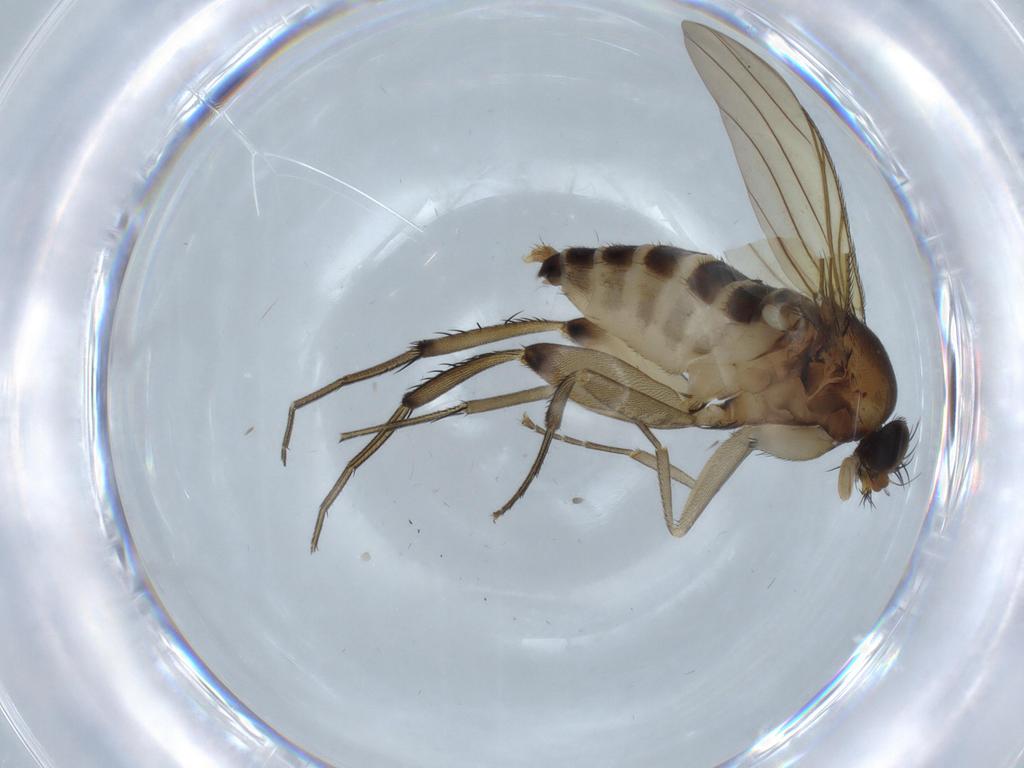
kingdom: Animalia
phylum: Arthropoda
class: Insecta
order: Diptera
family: Phoridae
